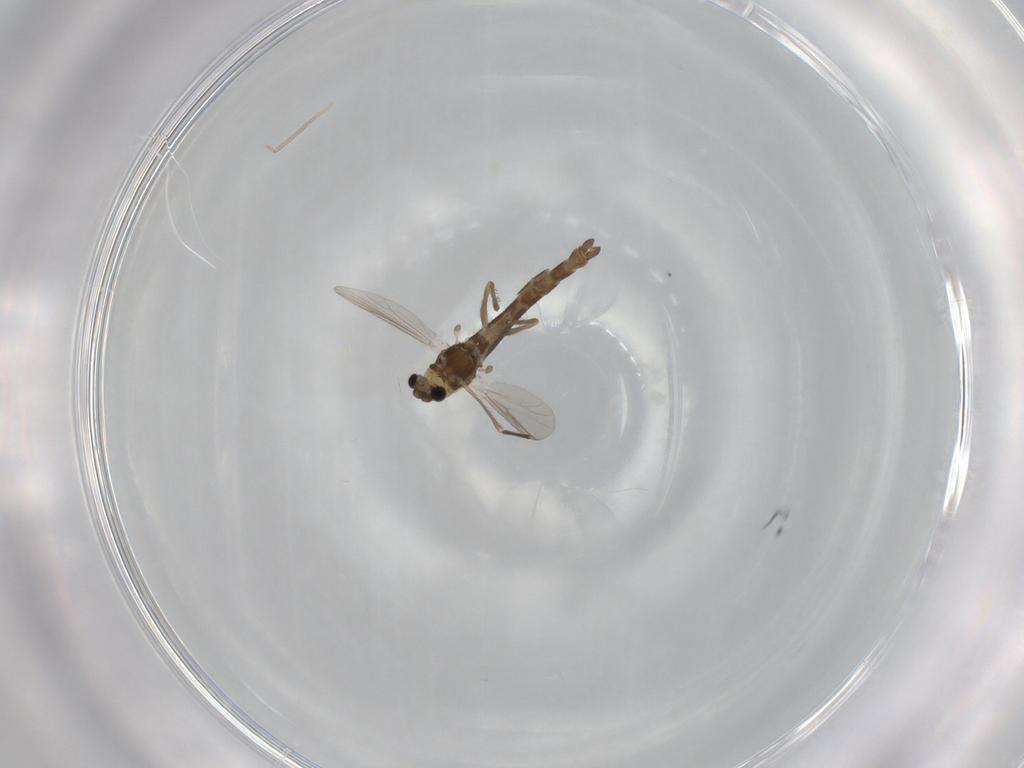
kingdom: Animalia
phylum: Arthropoda
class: Insecta
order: Diptera
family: Chironomidae
